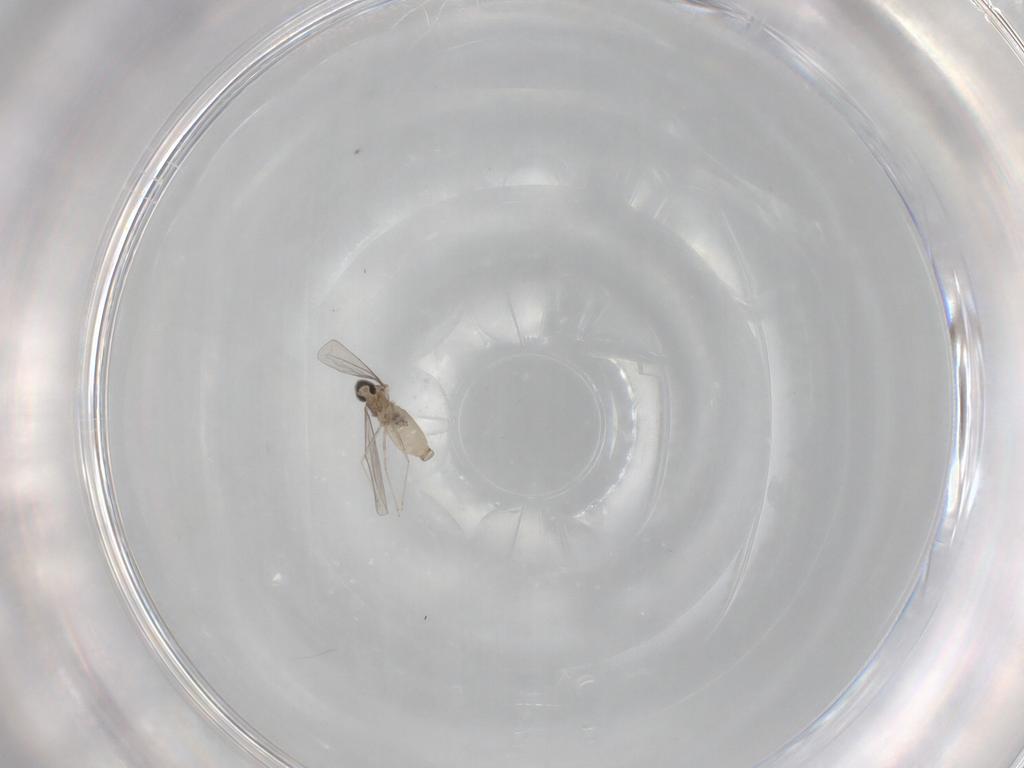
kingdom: Animalia
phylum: Arthropoda
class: Insecta
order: Diptera
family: Cecidomyiidae
